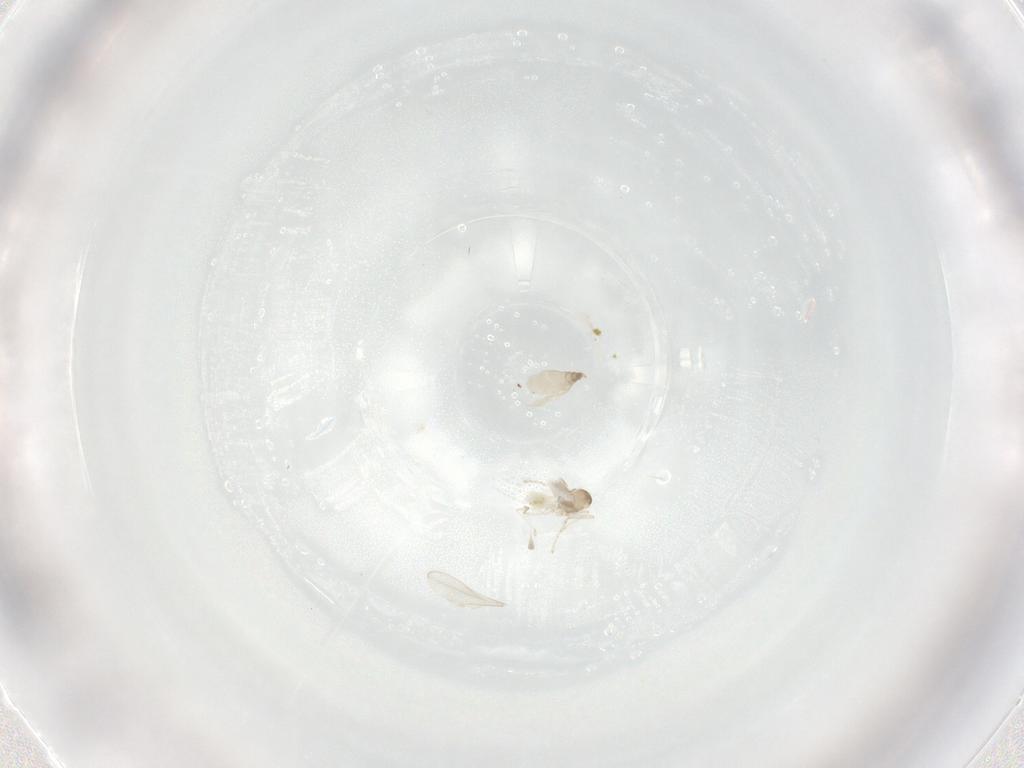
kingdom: Animalia
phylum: Arthropoda
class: Insecta
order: Diptera
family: Cecidomyiidae
